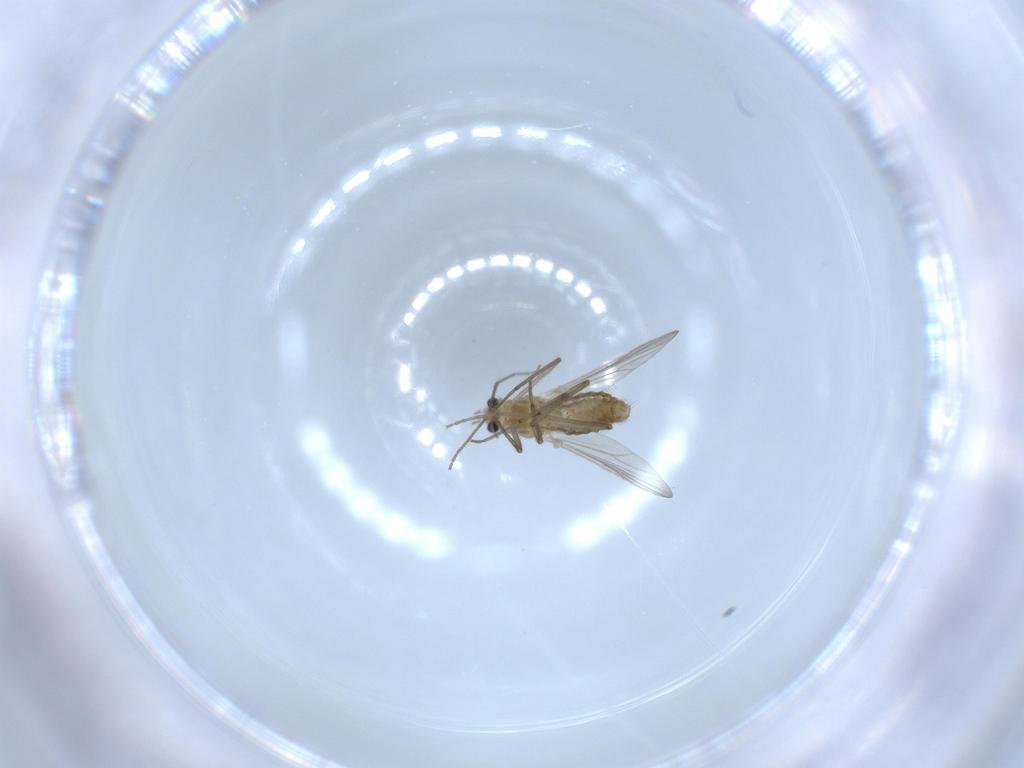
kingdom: Animalia
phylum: Arthropoda
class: Insecta
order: Diptera
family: Chironomidae
